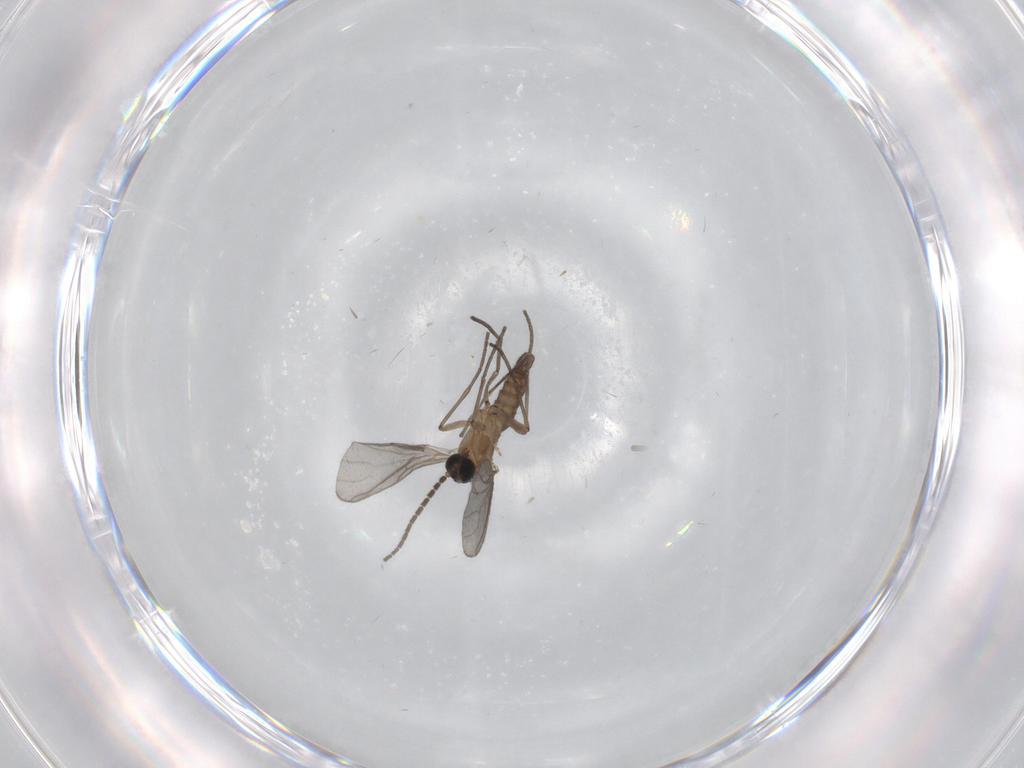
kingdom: Animalia
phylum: Arthropoda
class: Insecta
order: Diptera
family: Sciaridae
